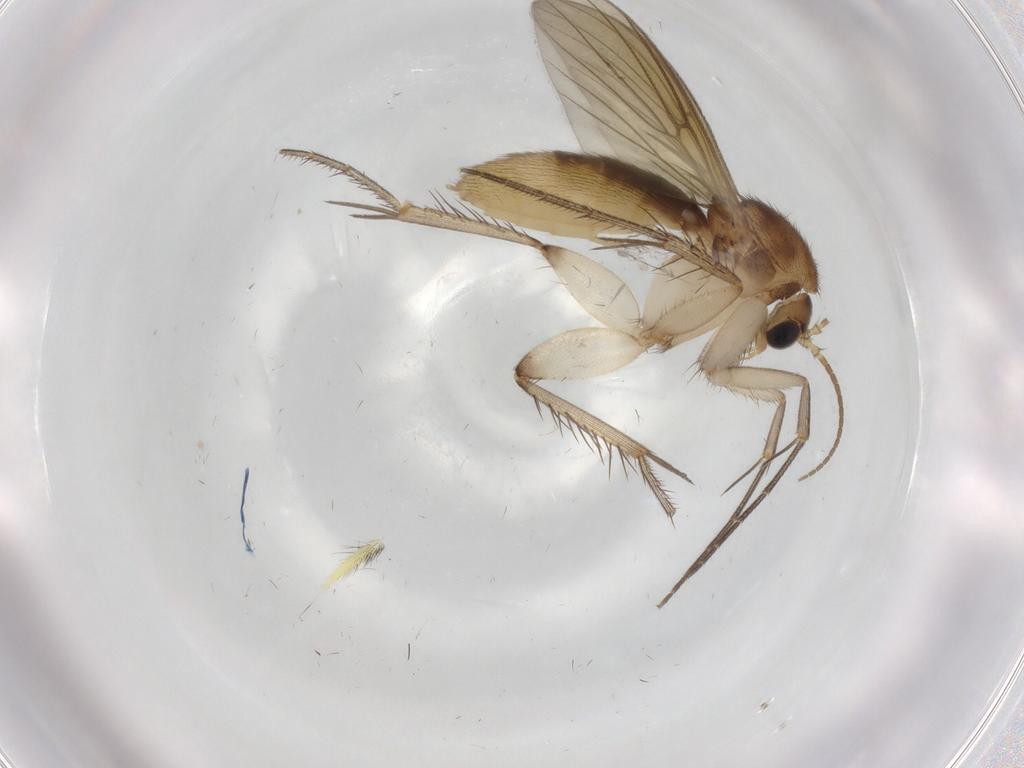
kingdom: Animalia
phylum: Arthropoda
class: Insecta
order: Diptera
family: Mycetophilidae
